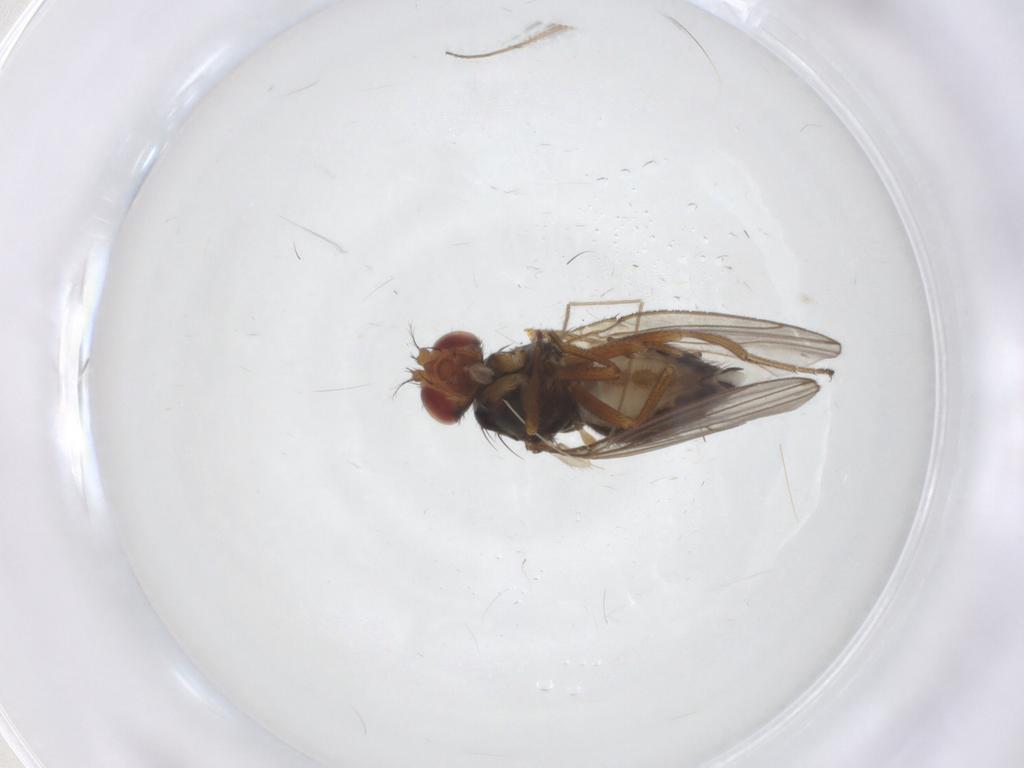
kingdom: Animalia
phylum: Arthropoda
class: Insecta
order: Diptera
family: Drosophilidae
